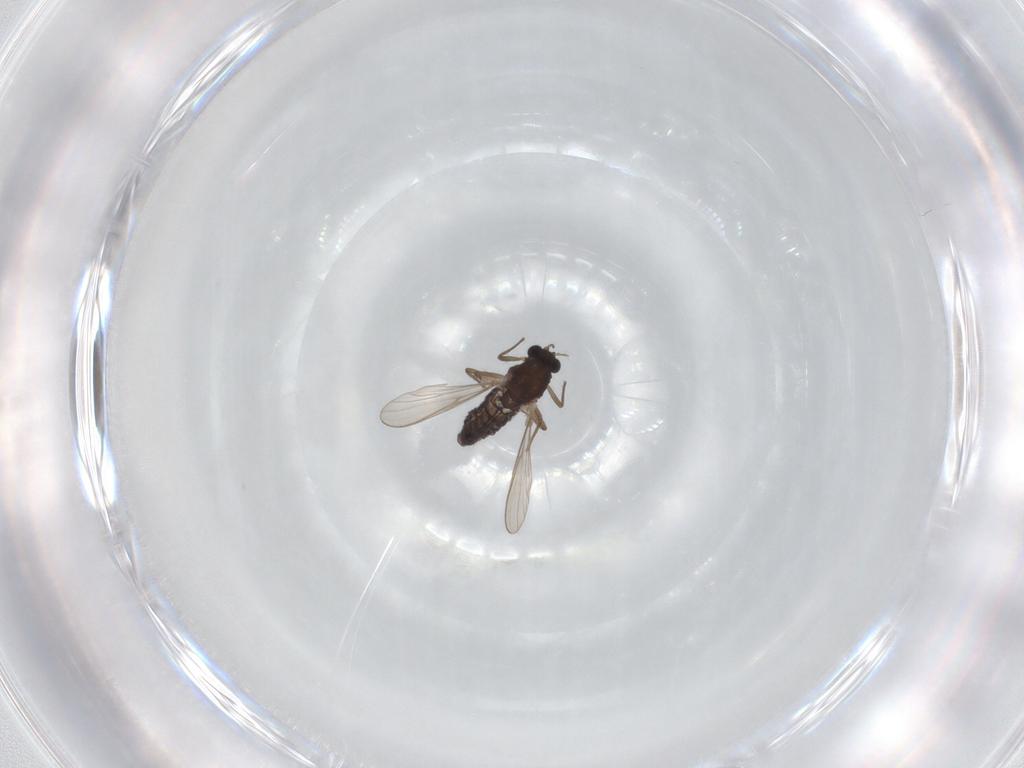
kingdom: Animalia
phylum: Arthropoda
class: Insecta
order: Diptera
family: Chironomidae
